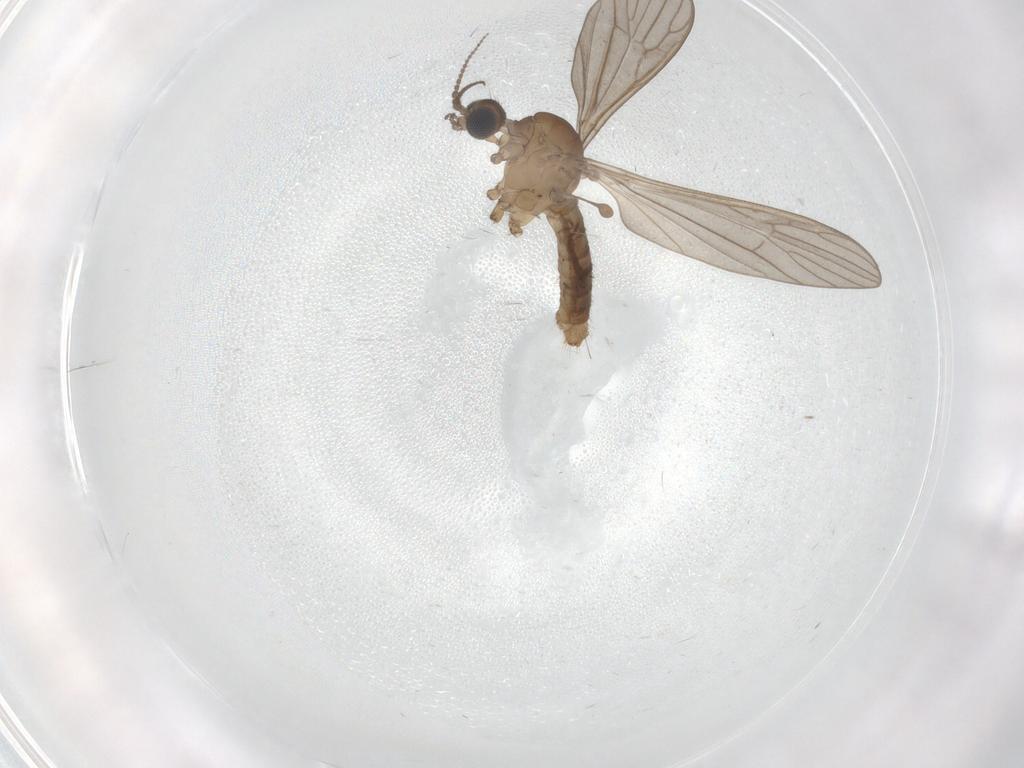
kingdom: Animalia
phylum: Arthropoda
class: Insecta
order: Diptera
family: Limoniidae
